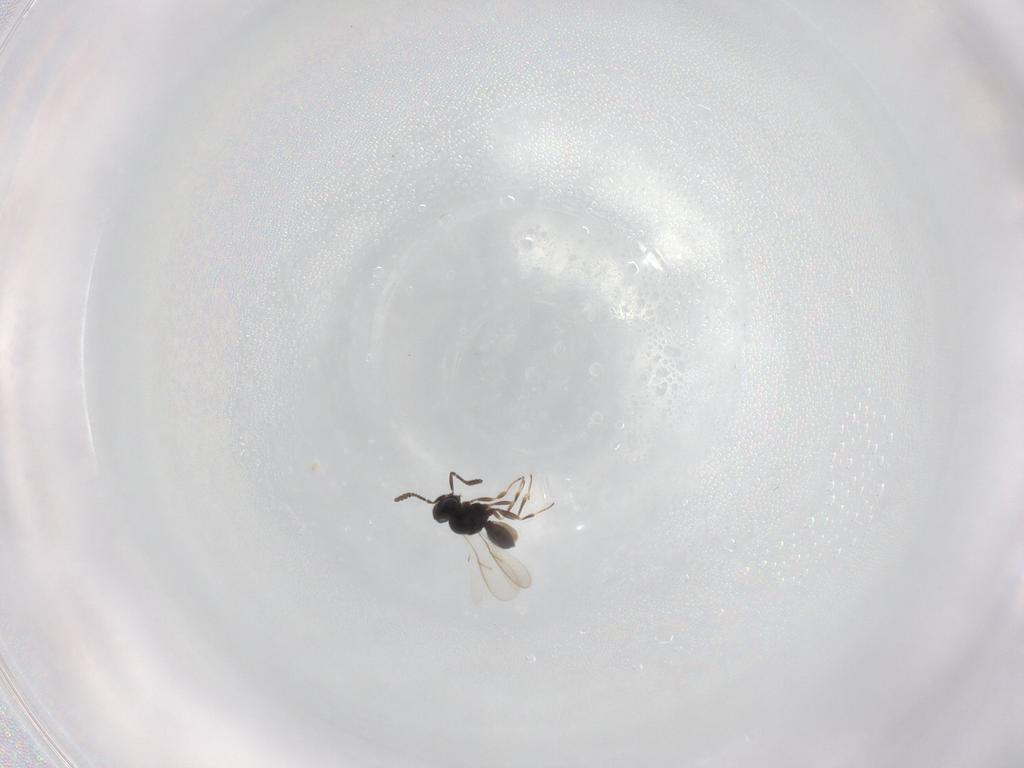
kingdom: Animalia
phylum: Arthropoda
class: Insecta
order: Hymenoptera
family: Scelionidae
